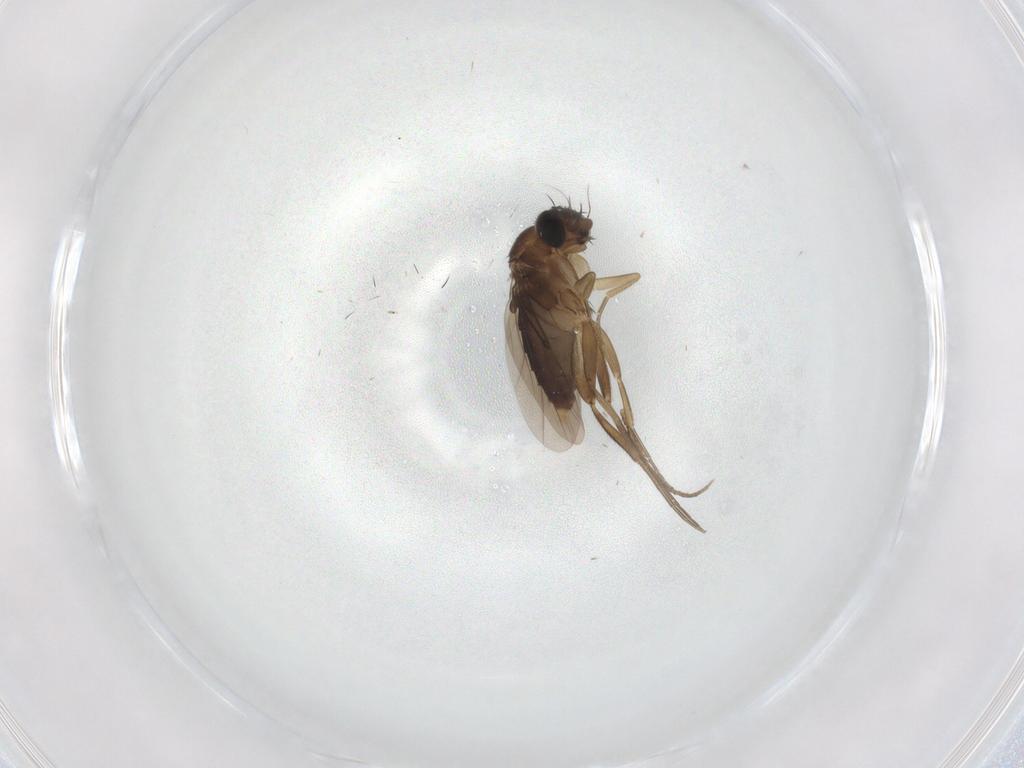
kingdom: Animalia
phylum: Arthropoda
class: Insecta
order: Diptera
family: Phoridae
